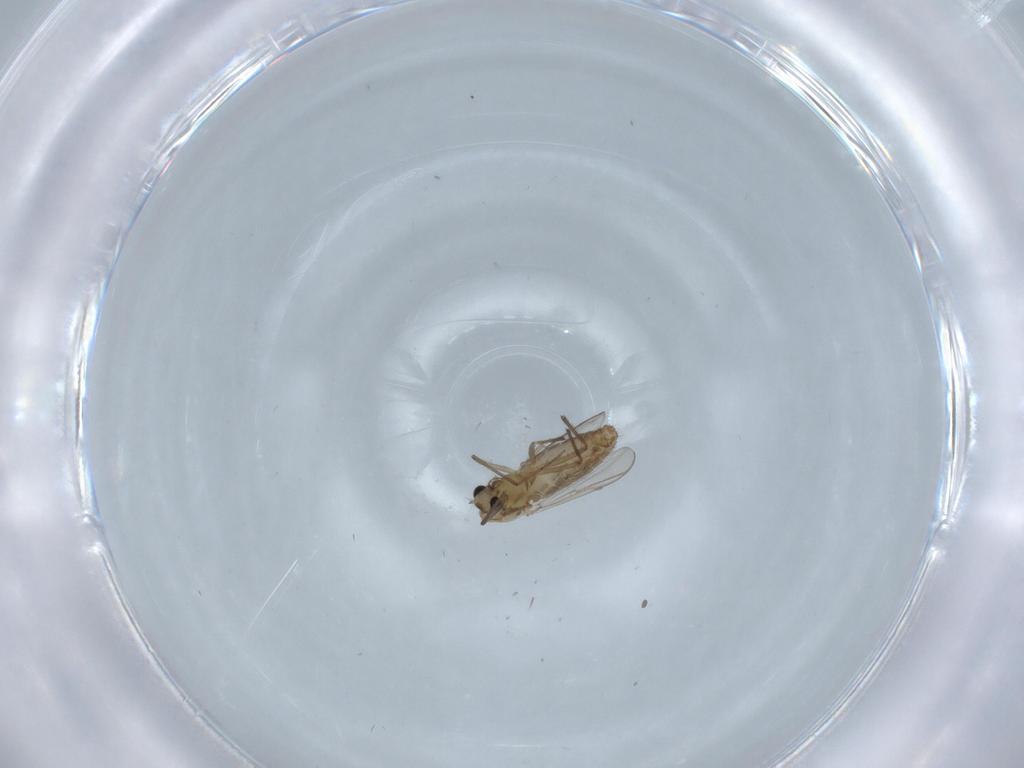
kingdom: Animalia
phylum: Arthropoda
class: Insecta
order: Diptera
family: Chironomidae
